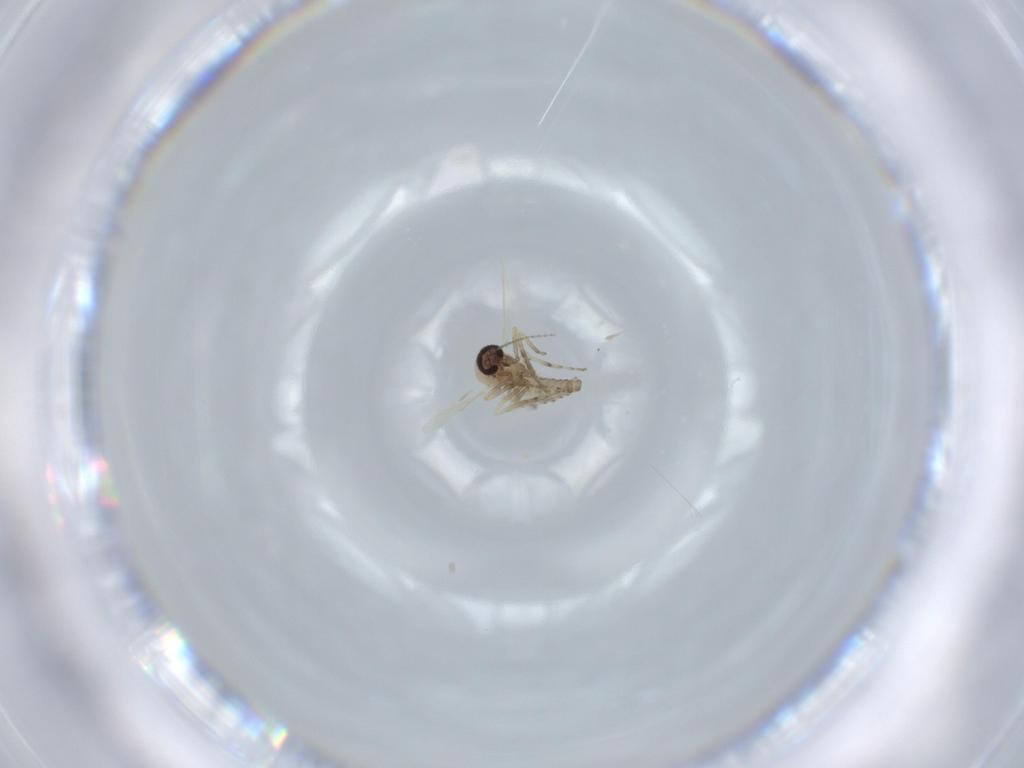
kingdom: Animalia
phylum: Arthropoda
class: Insecta
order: Diptera
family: Ceratopogonidae
